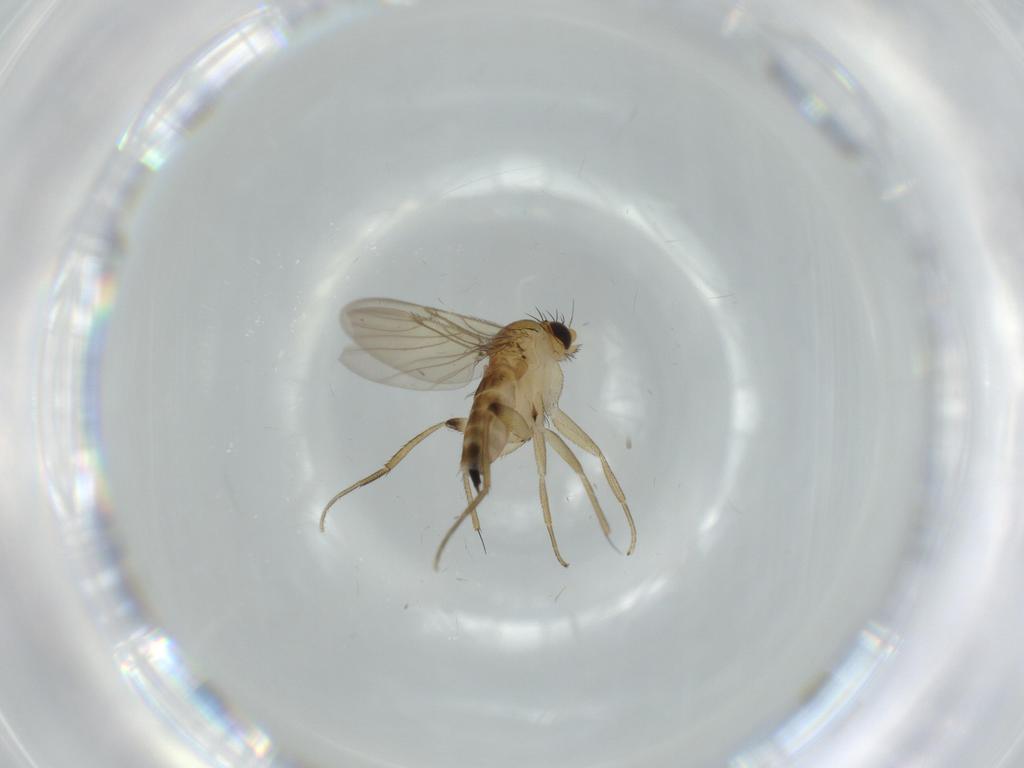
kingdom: Animalia
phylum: Arthropoda
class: Insecta
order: Diptera
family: Phoridae
